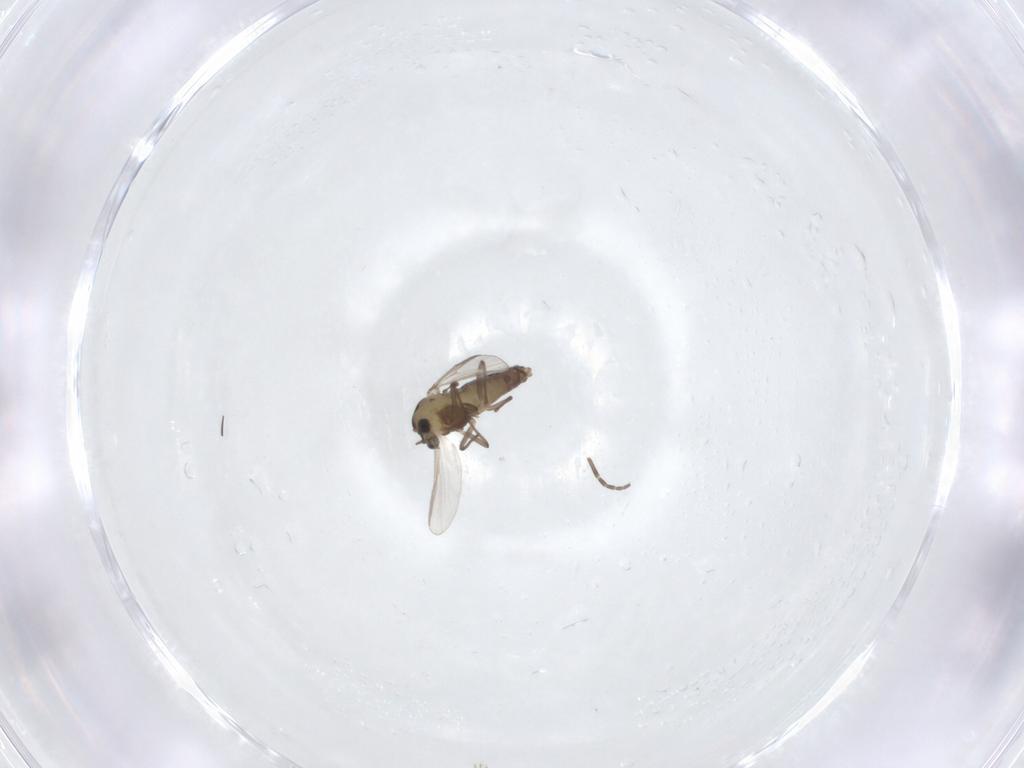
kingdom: Animalia
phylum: Arthropoda
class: Insecta
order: Diptera
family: Chironomidae
